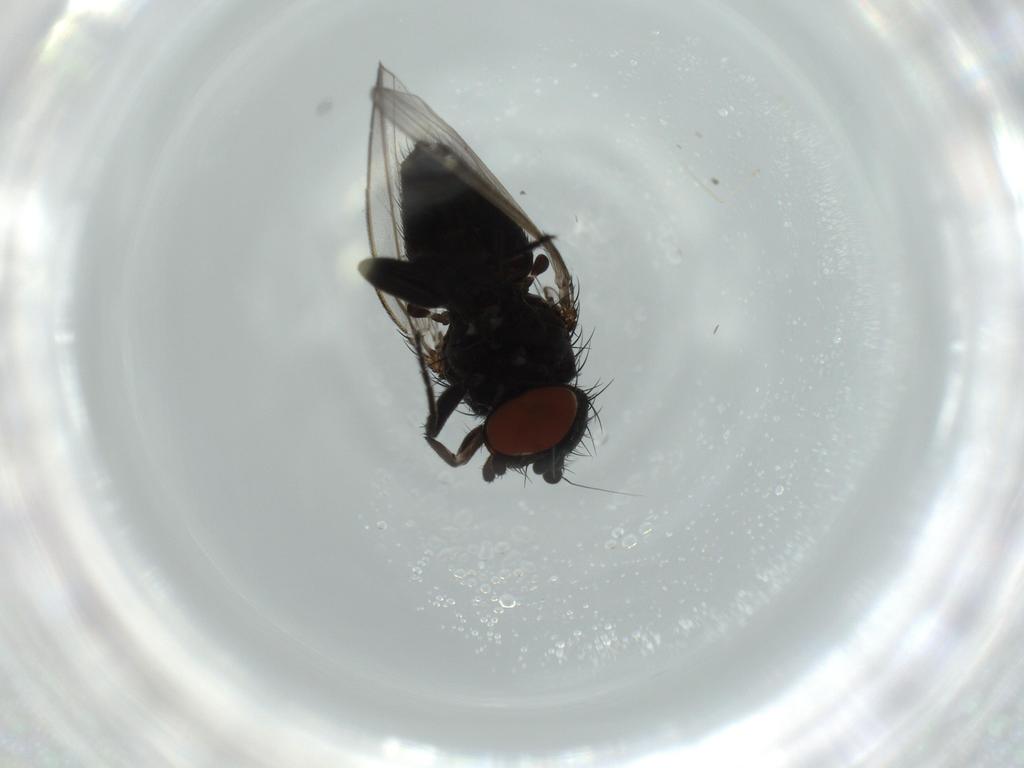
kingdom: Animalia
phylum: Arthropoda
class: Insecta
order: Diptera
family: Milichiidae
